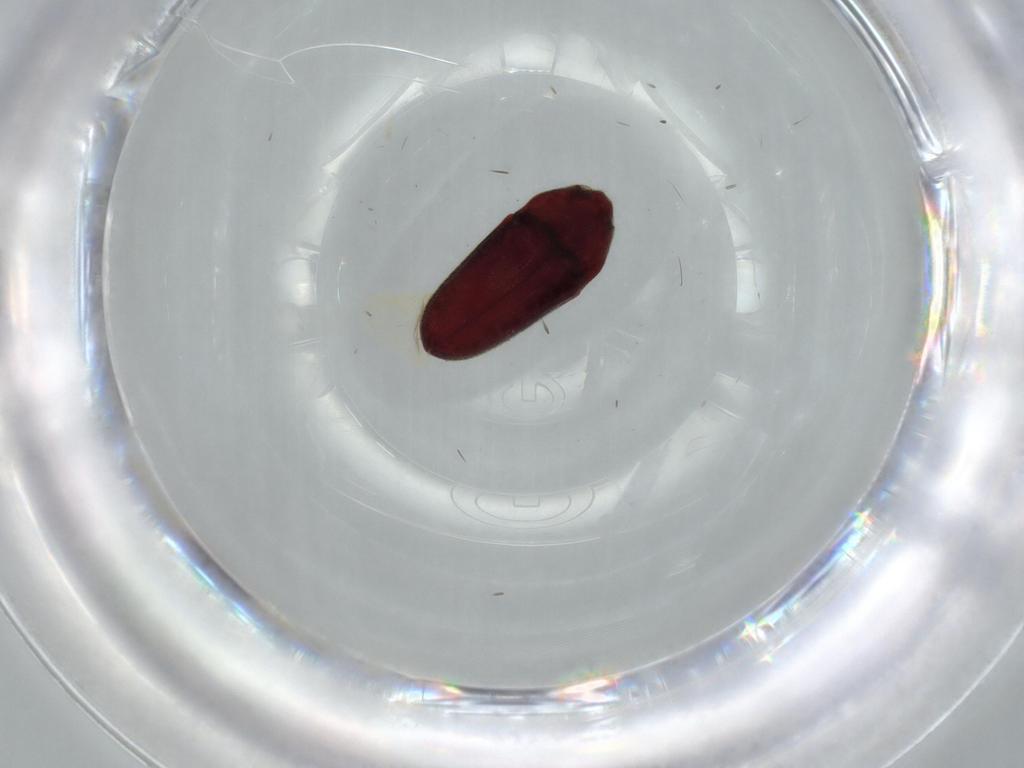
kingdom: Animalia
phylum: Arthropoda
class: Insecta
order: Coleoptera
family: Throscidae
